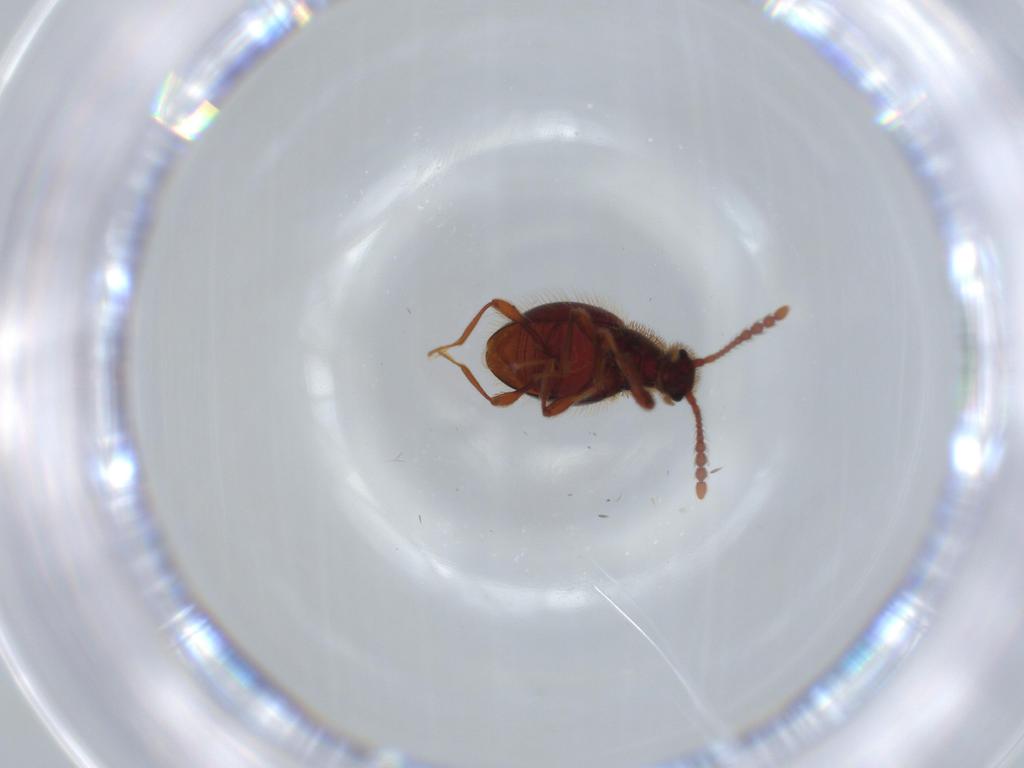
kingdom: Animalia
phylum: Arthropoda
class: Insecta
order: Coleoptera
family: Staphylinidae
